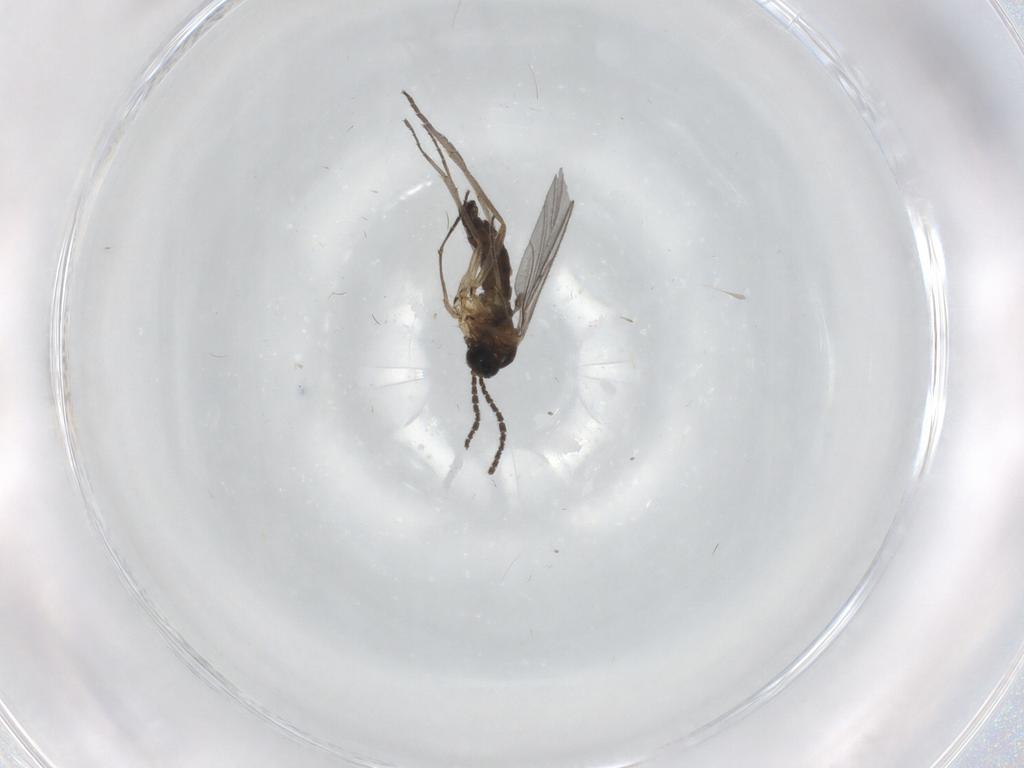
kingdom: Animalia
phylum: Arthropoda
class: Insecta
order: Diptera
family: Sciaridae
